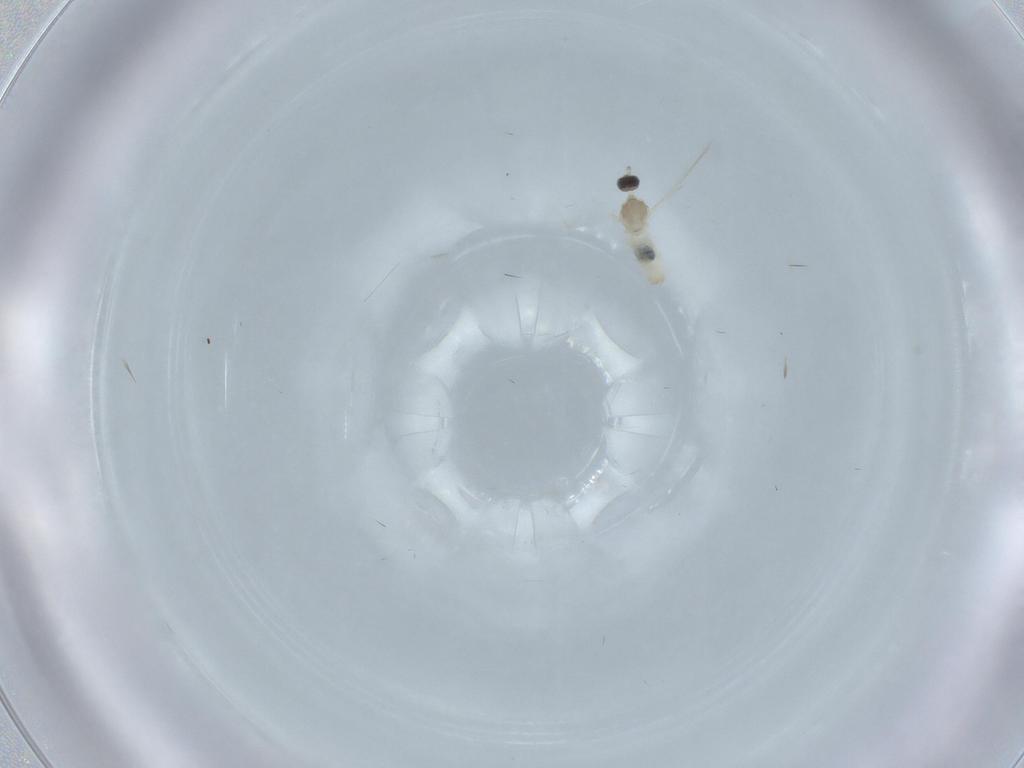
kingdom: Animalia
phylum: Arthropoda
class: Insecta
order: Diptera
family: Cecidomyiidae
